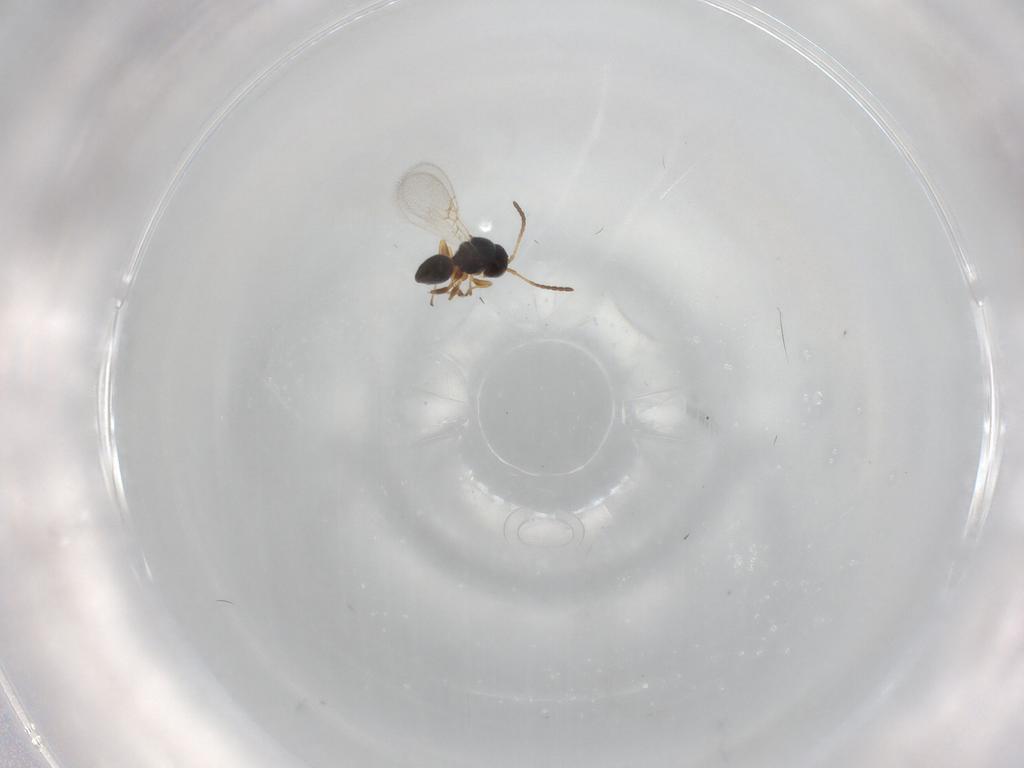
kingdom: Animalia
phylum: Arthropoda
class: Insecta
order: Hymenoptera
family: Figitidae
